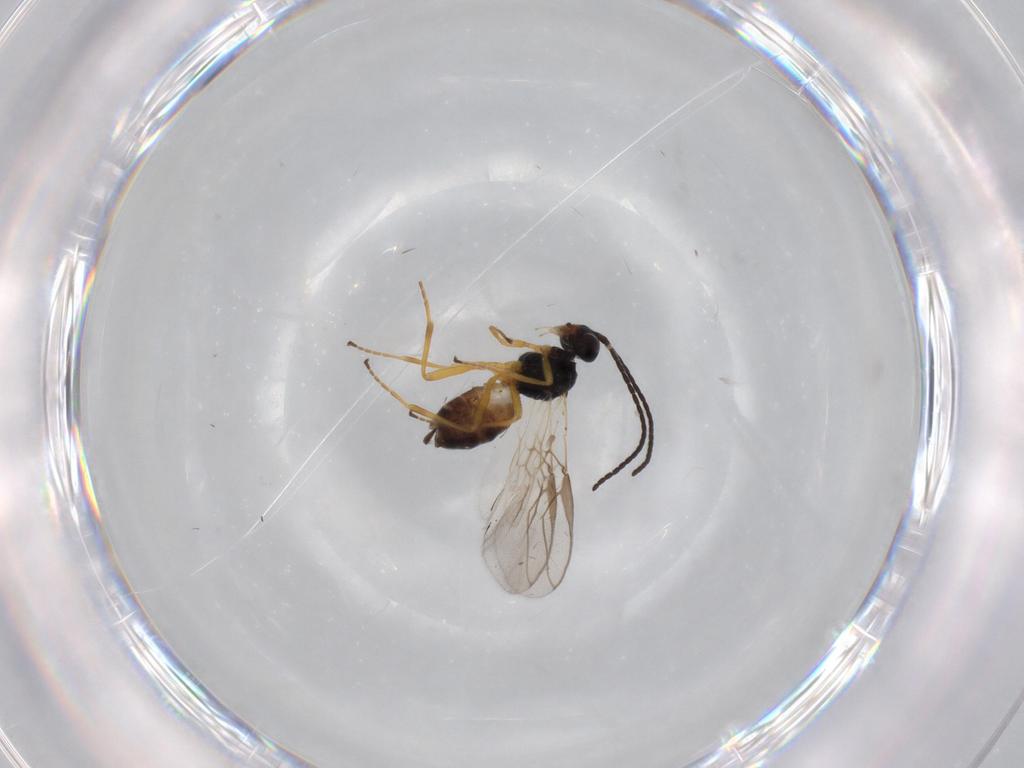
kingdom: Animalia
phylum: Arthropoda
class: Insecta
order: Hymenoptera
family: Braconidae
